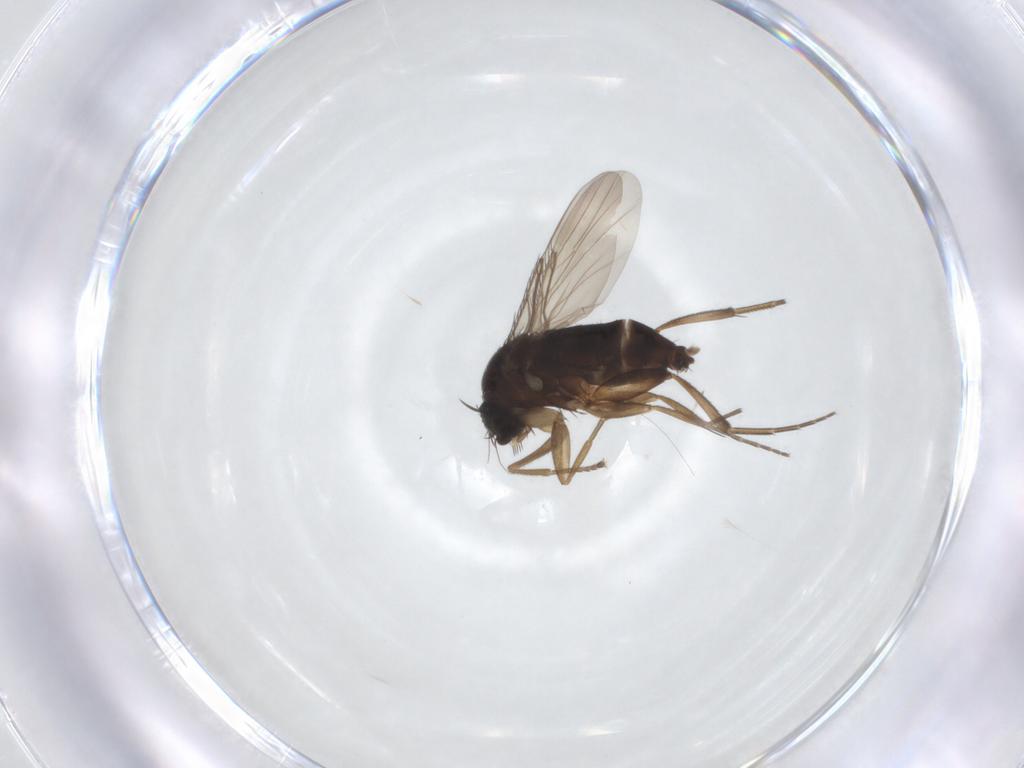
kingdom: Animalia
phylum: Arthropoda
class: Insecta
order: Diptera
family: Phoridae
